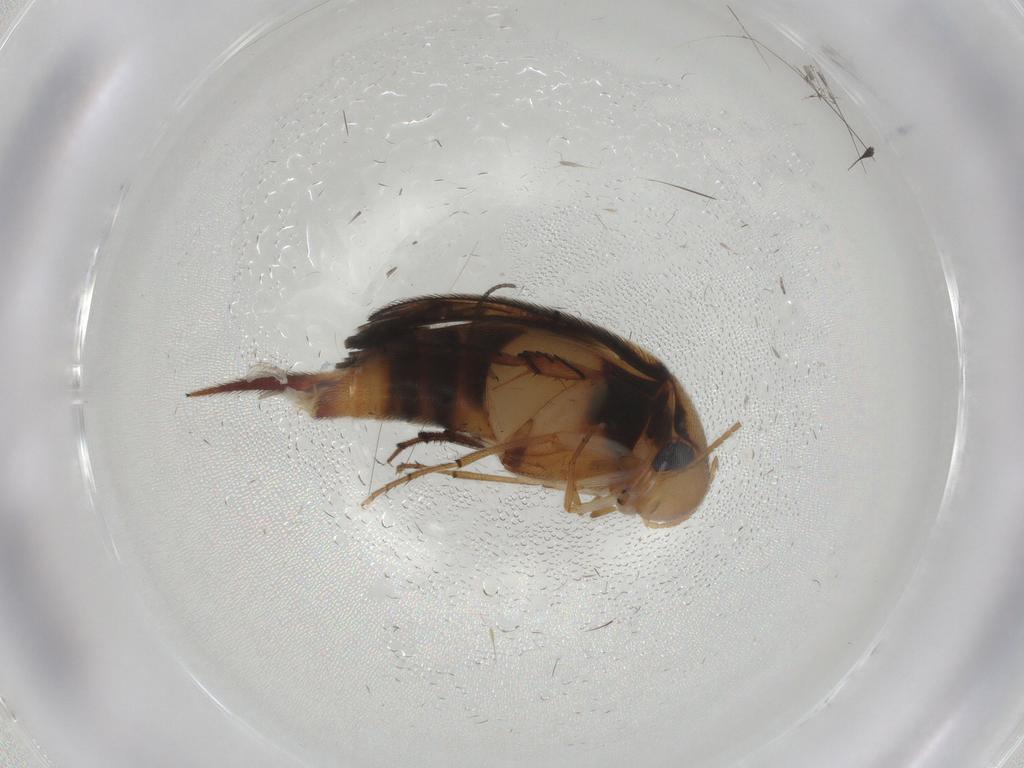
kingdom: Animalia
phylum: Arthropoda
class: Insecta
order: Coleoptera
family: Mordellidae
